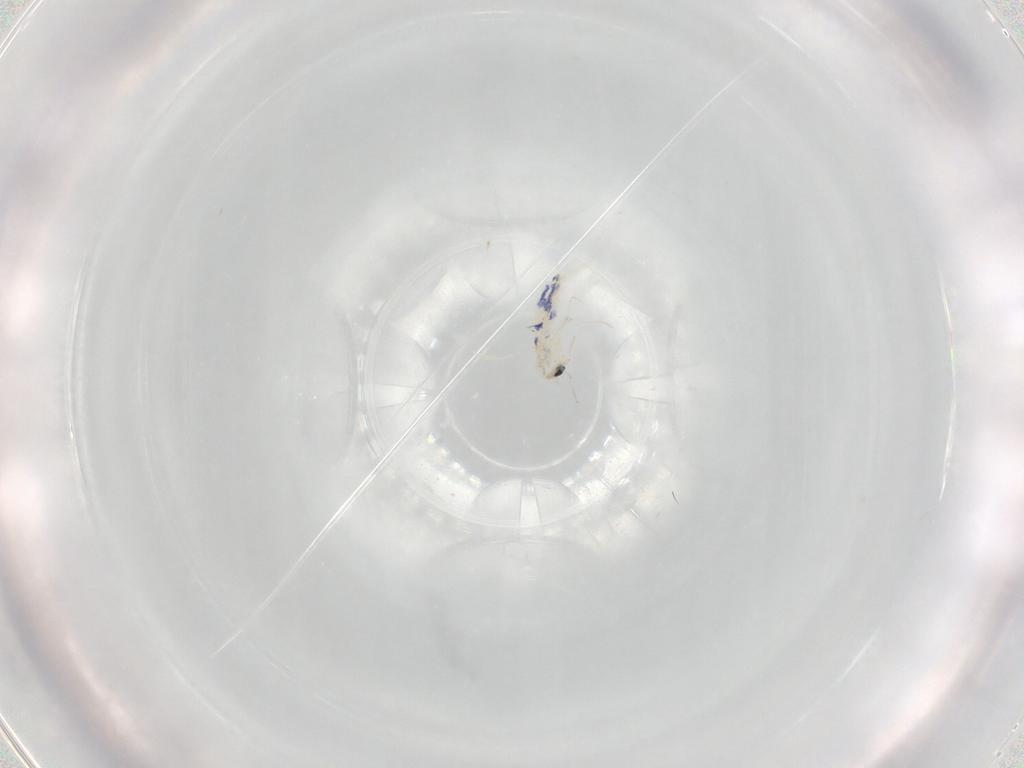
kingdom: Animalia
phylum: Arthropoda
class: Collembola
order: Entomobryomorpha
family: Entomobryidae
